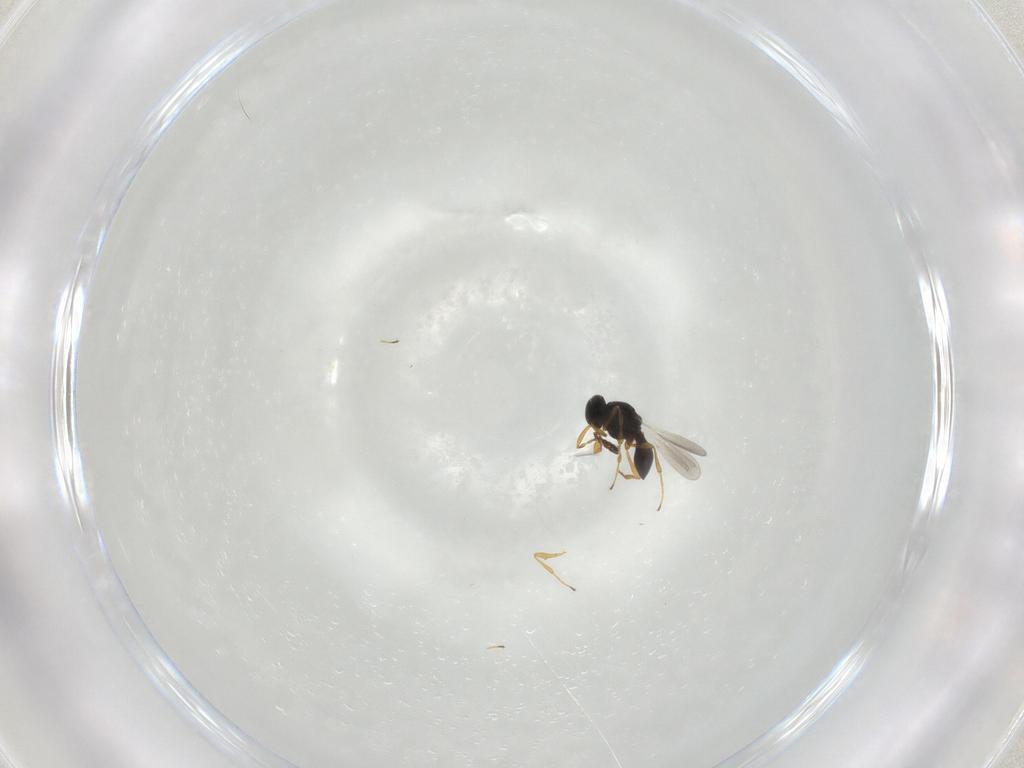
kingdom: Animalia
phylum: Arthropoda
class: Insecta
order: Hymenoptera
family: Platygastridae
